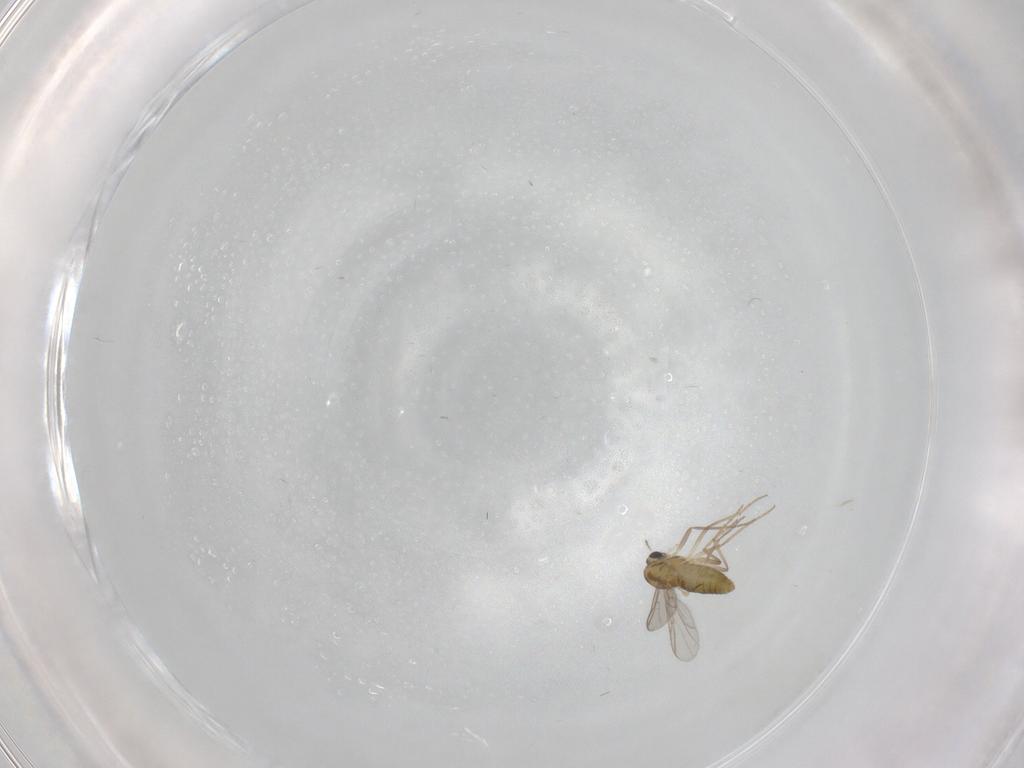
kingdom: Animalia
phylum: Arthropoda
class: Insecta
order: Diptera
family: Chironomidae
